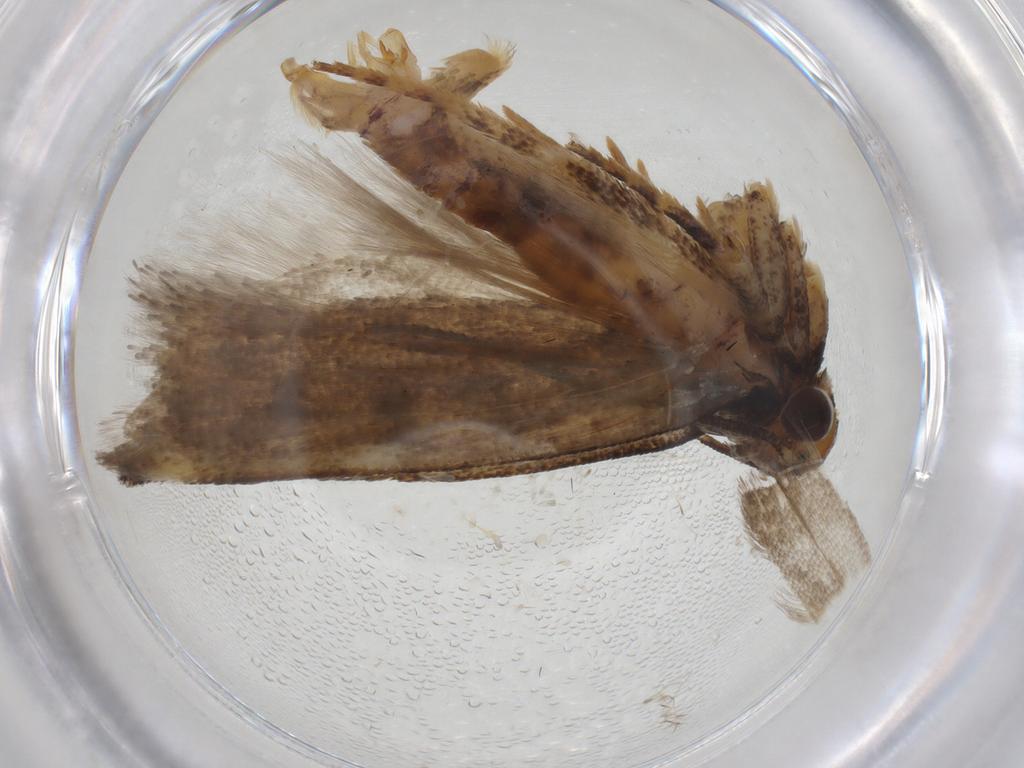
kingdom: Animalia
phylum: Arthropoda
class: Insecta
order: Lepidoptera
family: Gelechiidae
